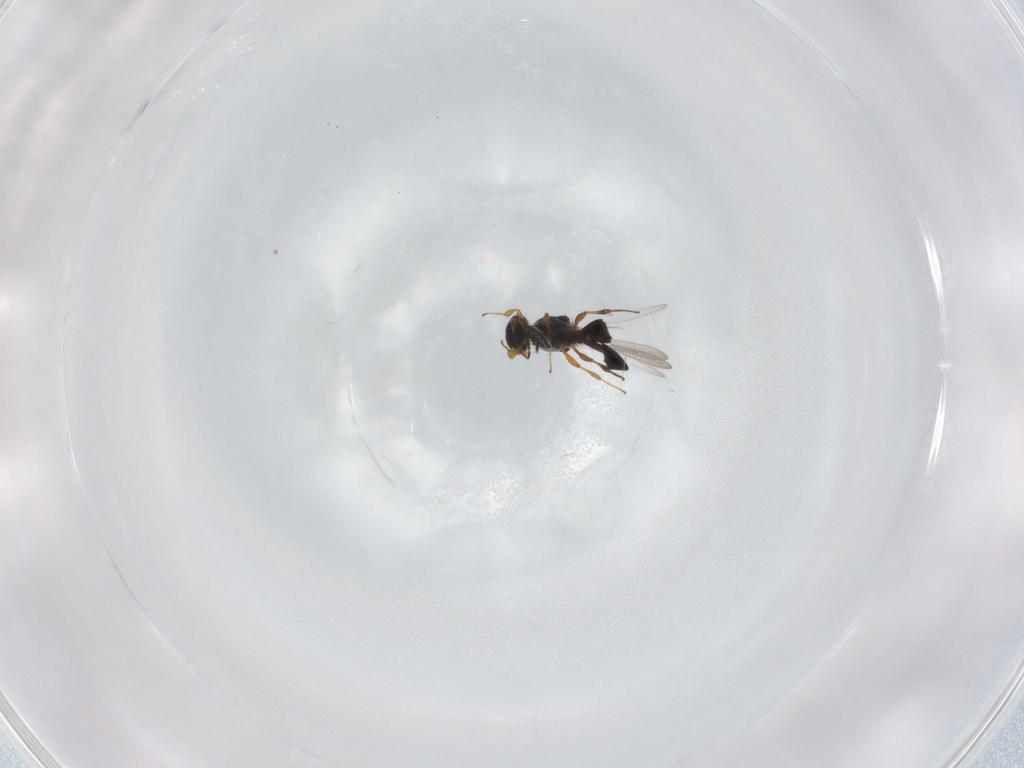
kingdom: Animalia
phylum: Arthropoda
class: Insecta
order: Hymenoptera
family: Platygastridae
